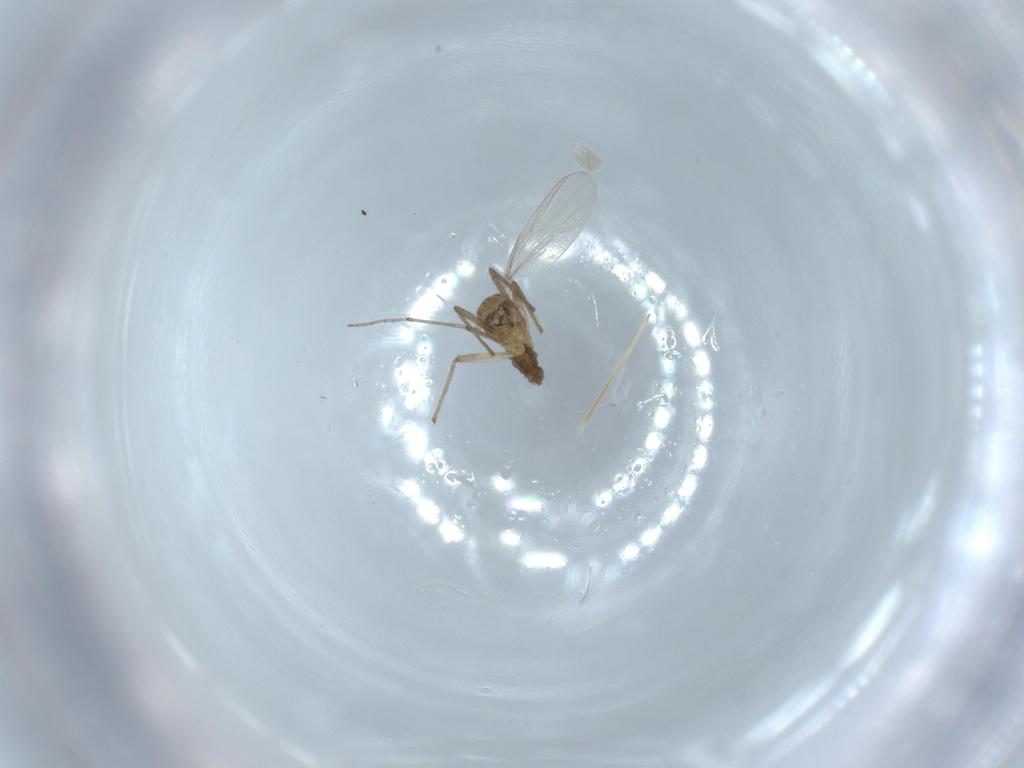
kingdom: Animalia
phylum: Arthropoda
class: Insecta
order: Diptera
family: Chironomidae
